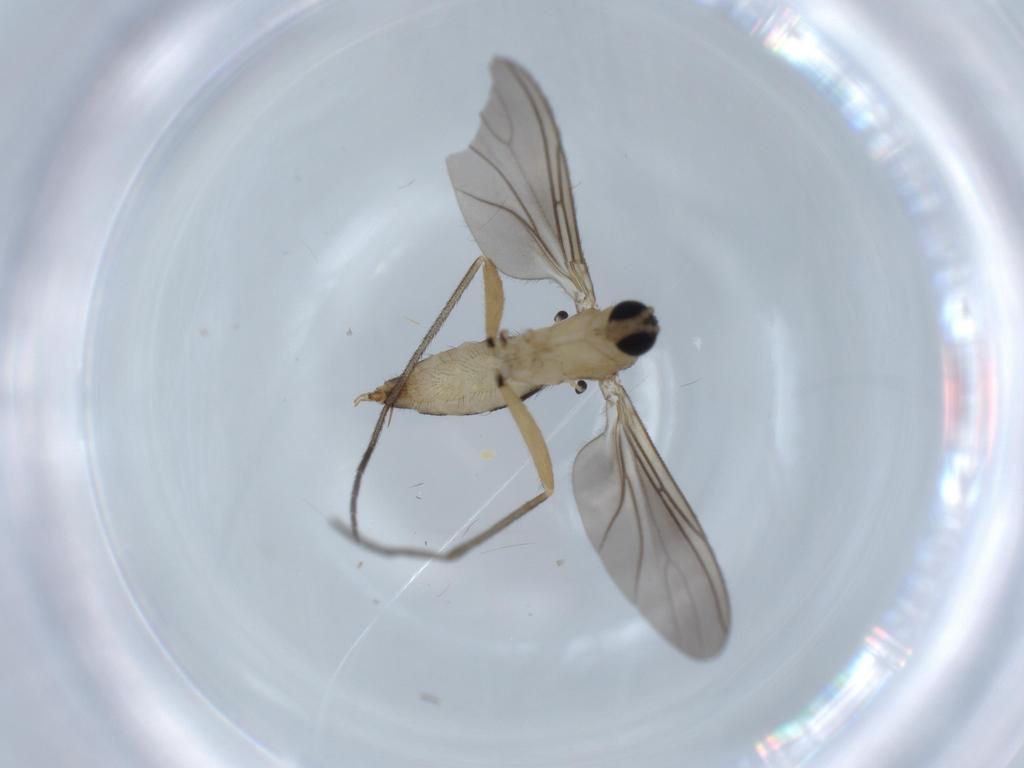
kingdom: Animalia
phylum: Arthropoda
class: Insecta
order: Diptera
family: Sciaridae
